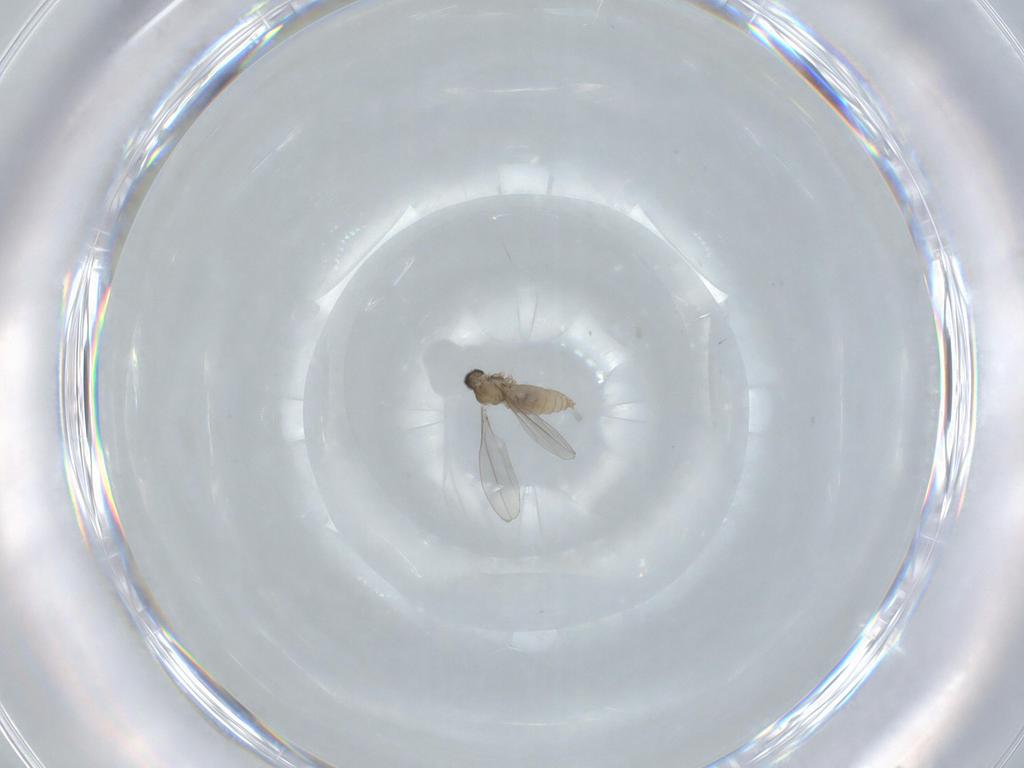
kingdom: Animalia
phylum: Arthropoda
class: Insecta
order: Diptera
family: Cecidomyiidae
